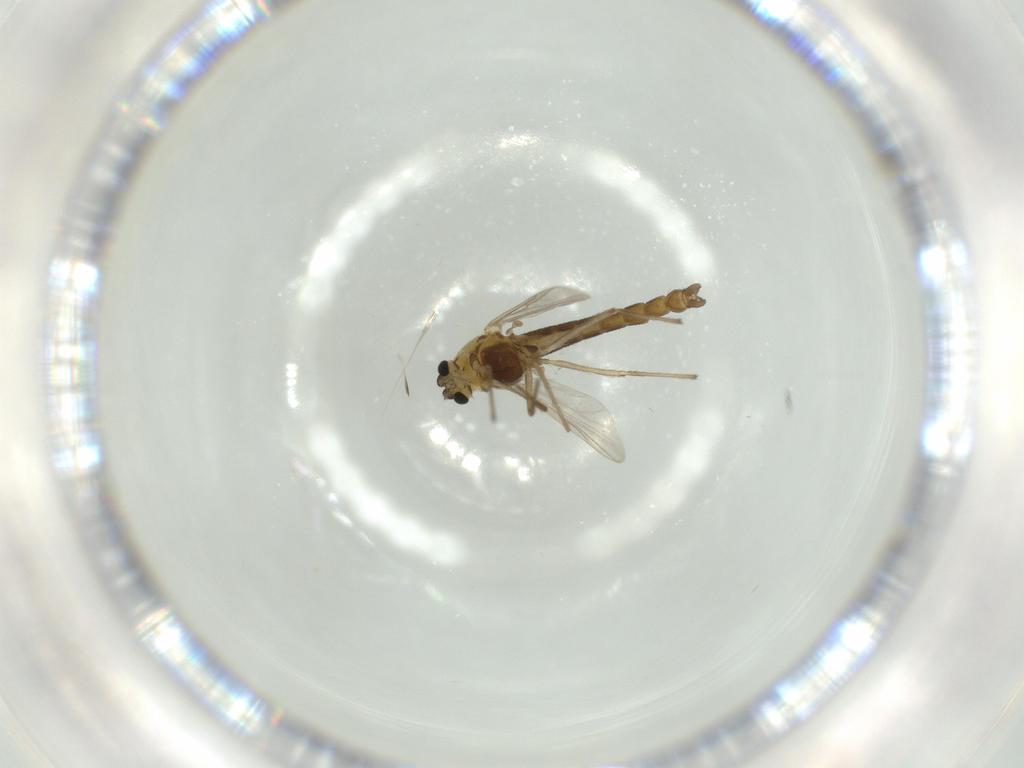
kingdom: Animalia
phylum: Arthropoda
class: Insecta
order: Diptera
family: Chironomidae
